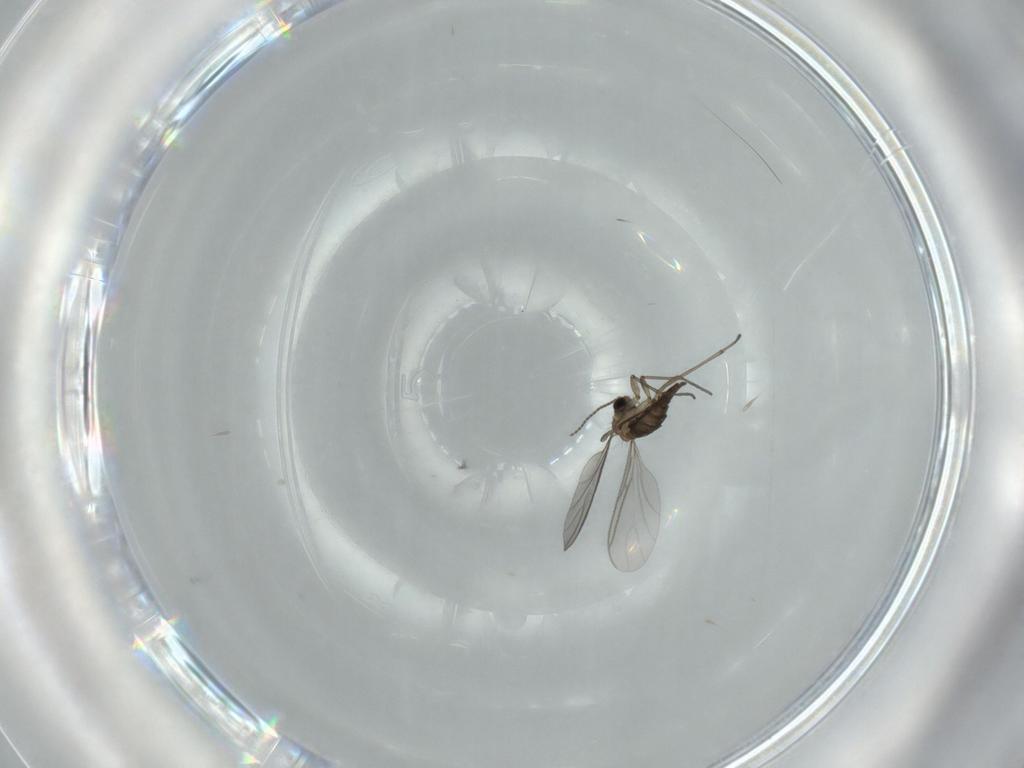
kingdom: Animalia
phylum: Arthropoda
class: Insecta
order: Diptera
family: Sciaridae
